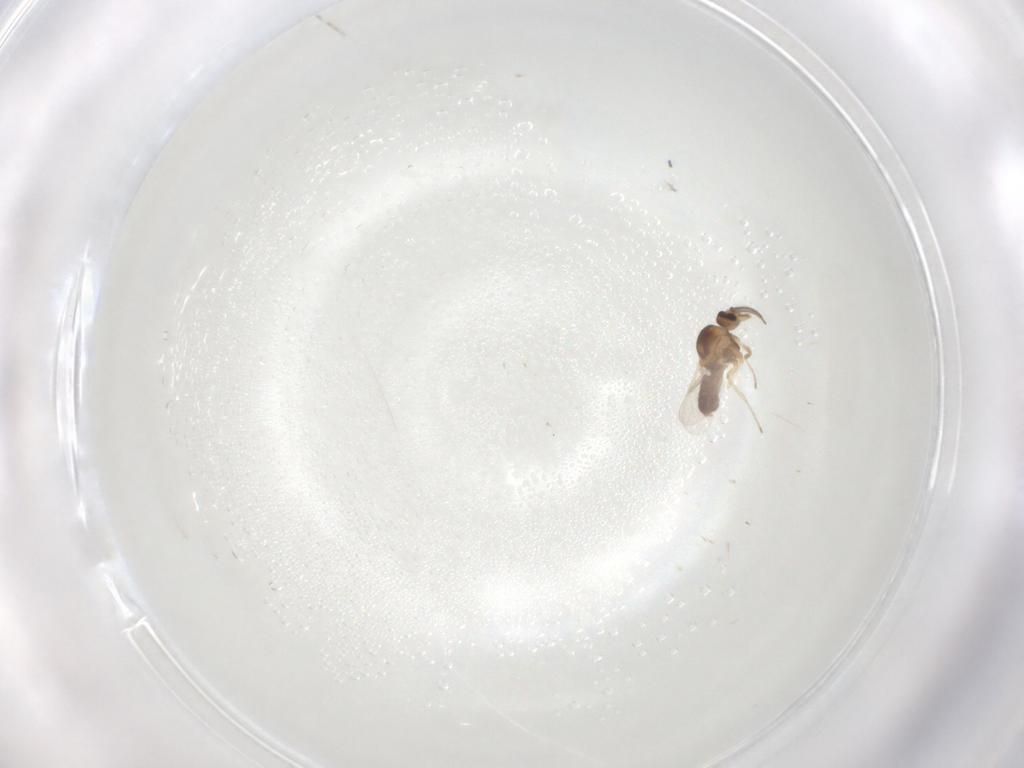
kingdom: Animalia
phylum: Arthropoda
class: Insecta
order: Diptera
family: Ceratopogonidae
